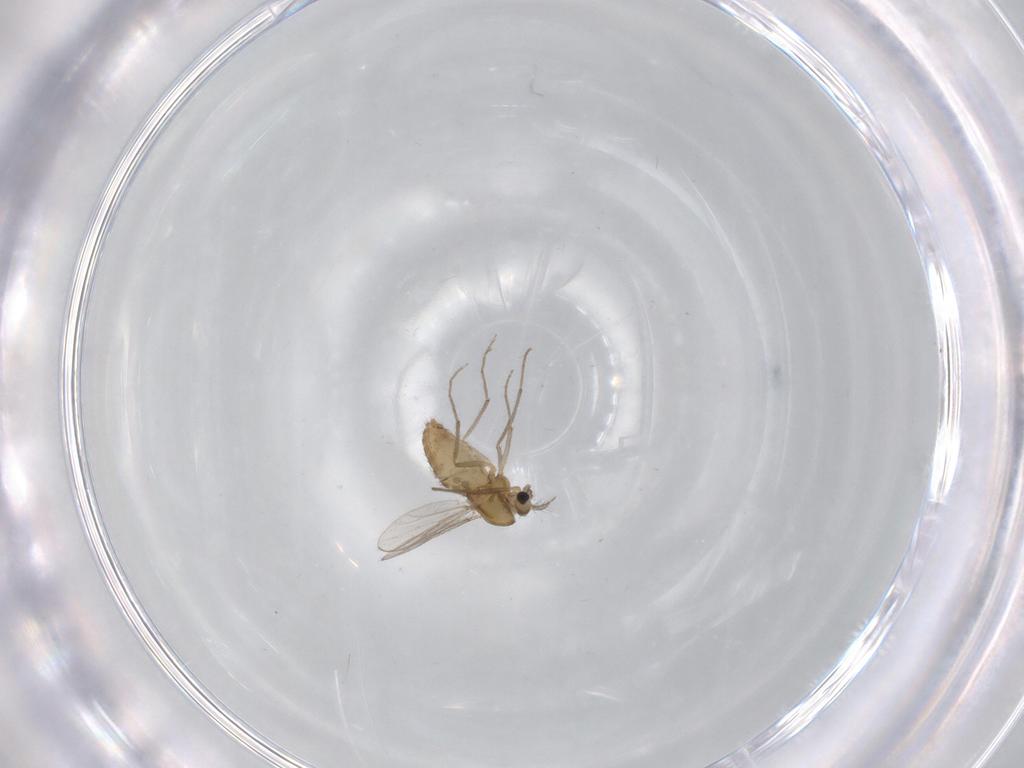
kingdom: Animalia
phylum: Arthropoda
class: Insecta
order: Diptera
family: Chironomidae
